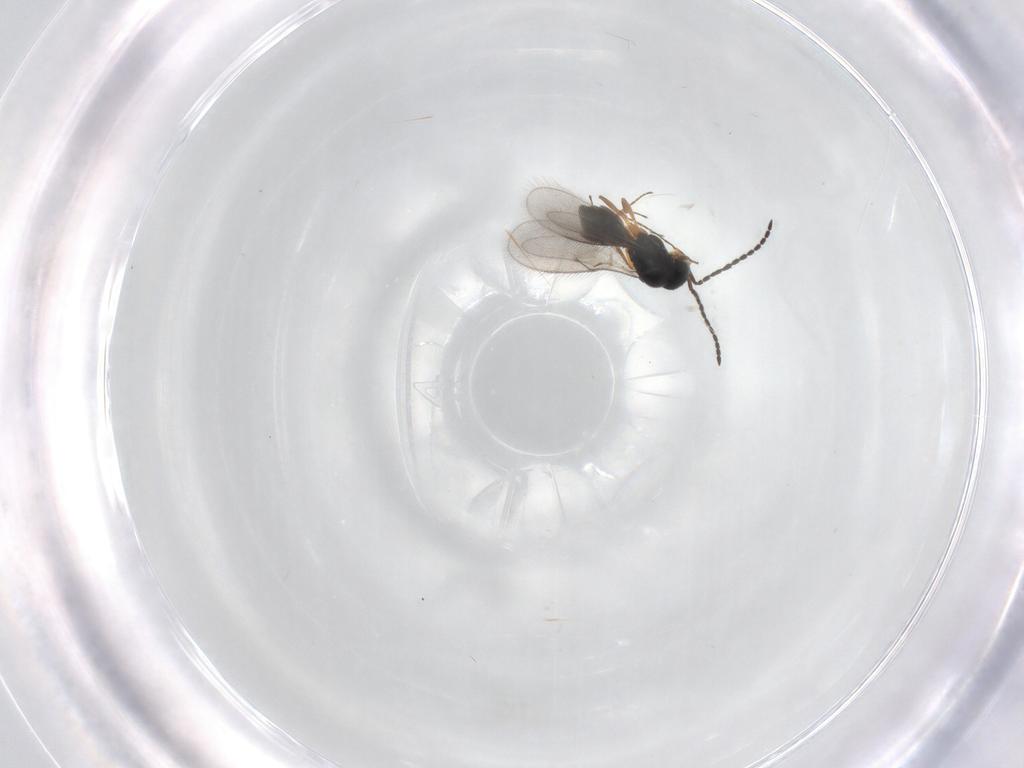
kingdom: Animalia
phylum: Arthropoda
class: Insecta
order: Hymenoptera
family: Scelionidae
